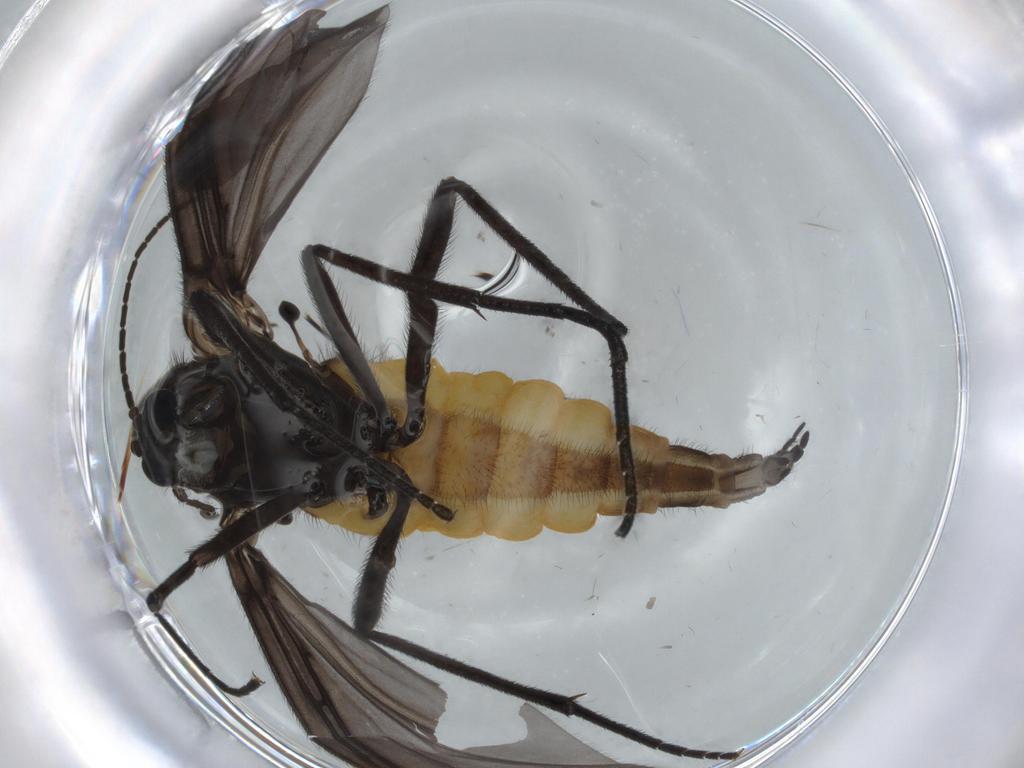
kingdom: Animalia
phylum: Arthropoda
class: Insecta
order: Diptera
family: Sciaridae
